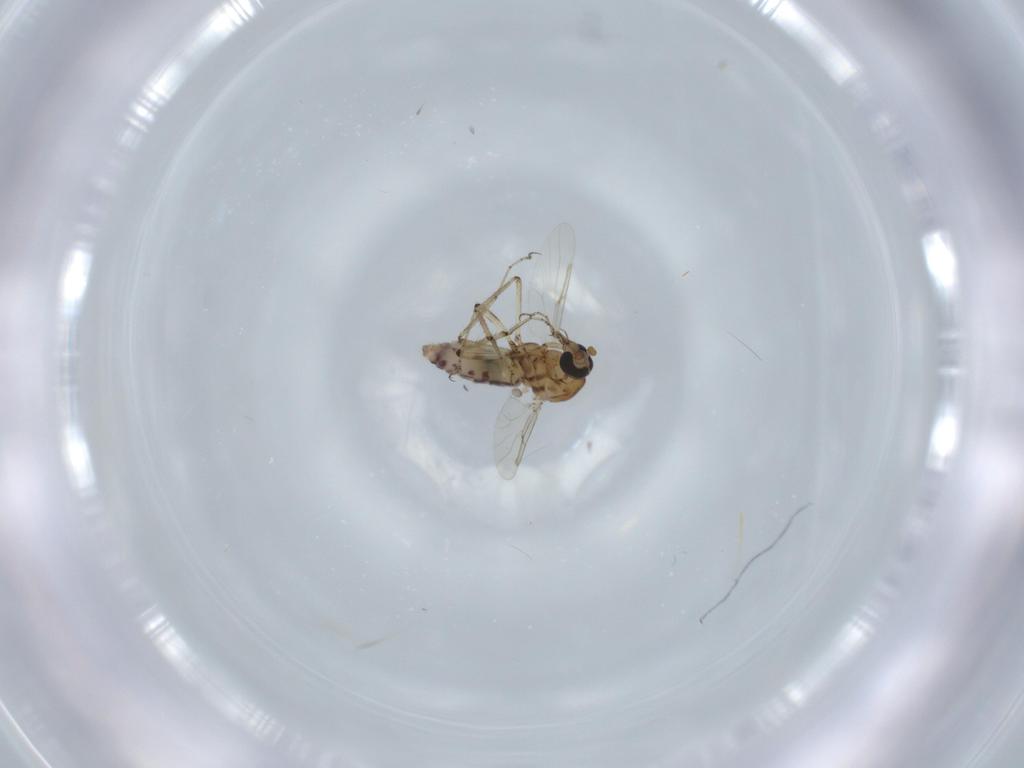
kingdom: Animalia
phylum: Arthropoda
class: Insecta
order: Diptera
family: Ceratopogonidae
